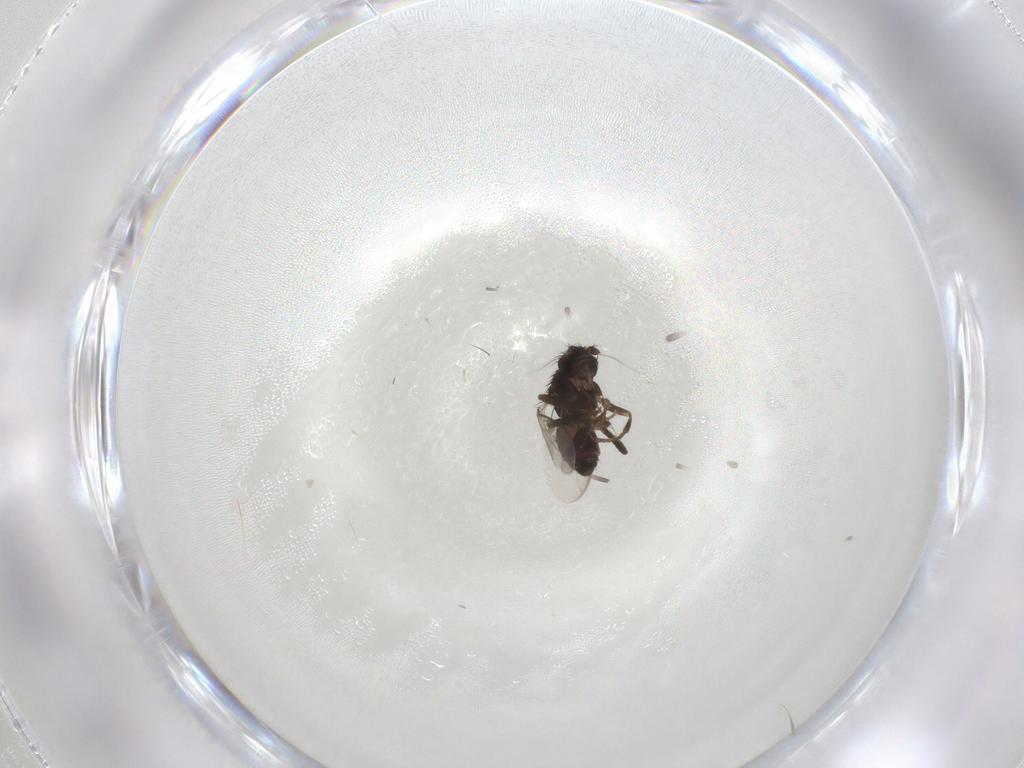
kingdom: Animalia
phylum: Arthropoda
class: Insecta
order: Diptera
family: Sphaeroceridae
